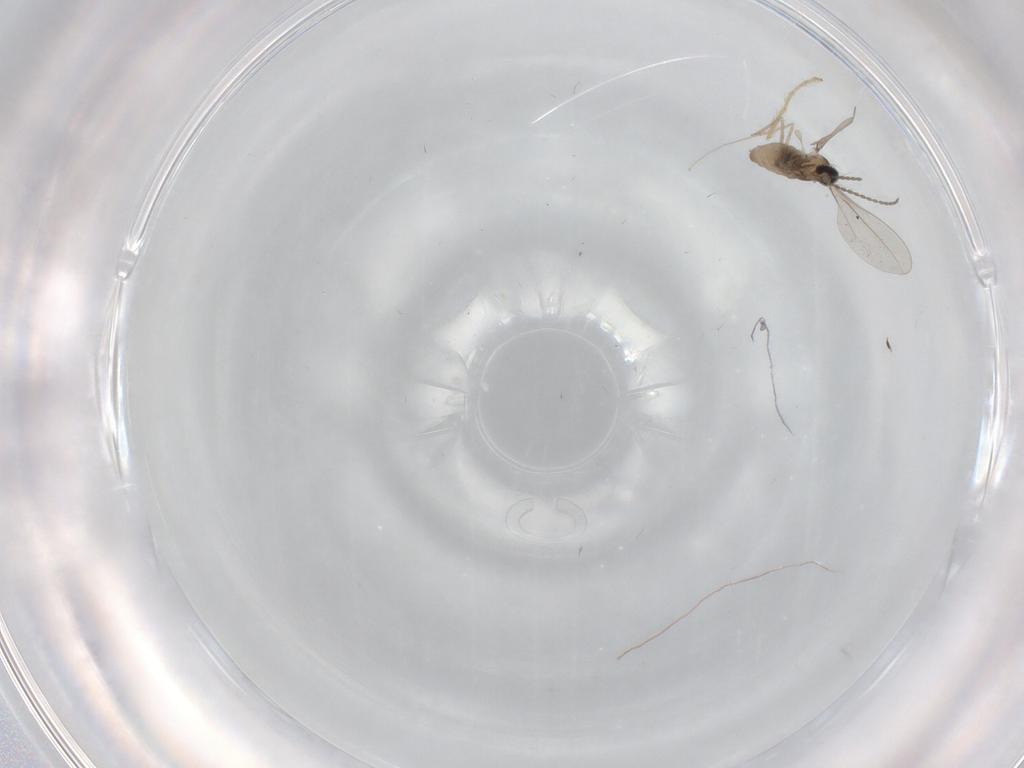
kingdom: Animalia
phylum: Arthropoda
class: Insecta
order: Diptera
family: Cecidomyiidae
